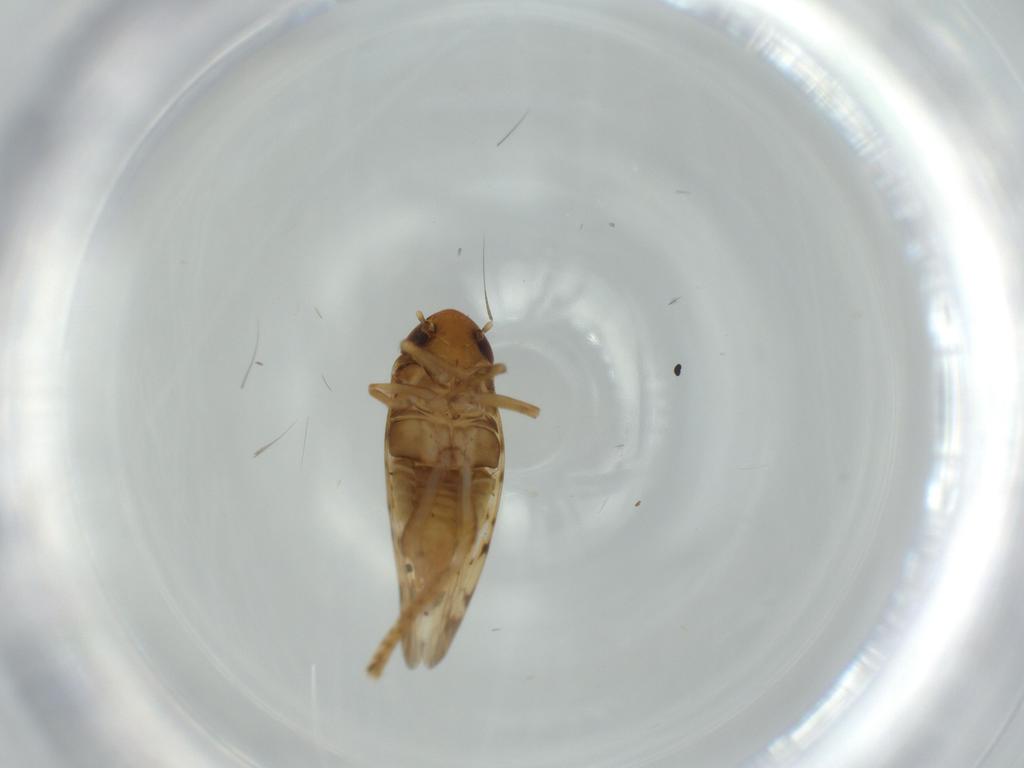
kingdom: Animalia
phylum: Arthropoda
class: Insecta
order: Hemiptera
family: Cicadellidae
